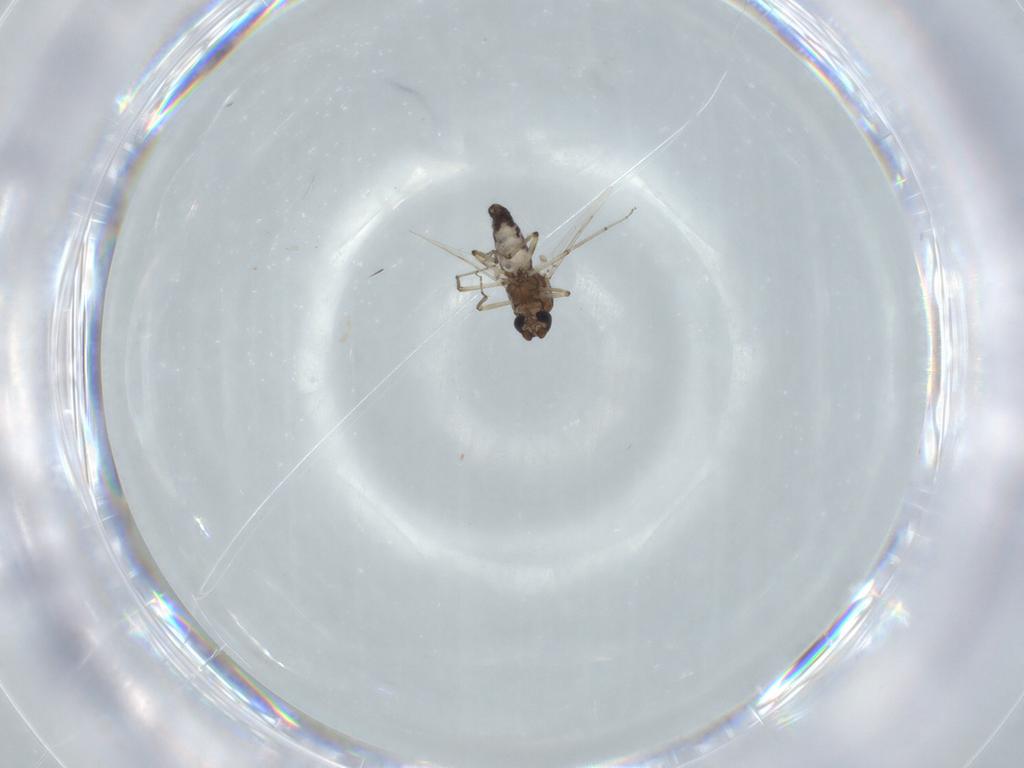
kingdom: Animalia
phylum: Arthropoda
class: Insecta
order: Diptera
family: Ceratopogonidae
